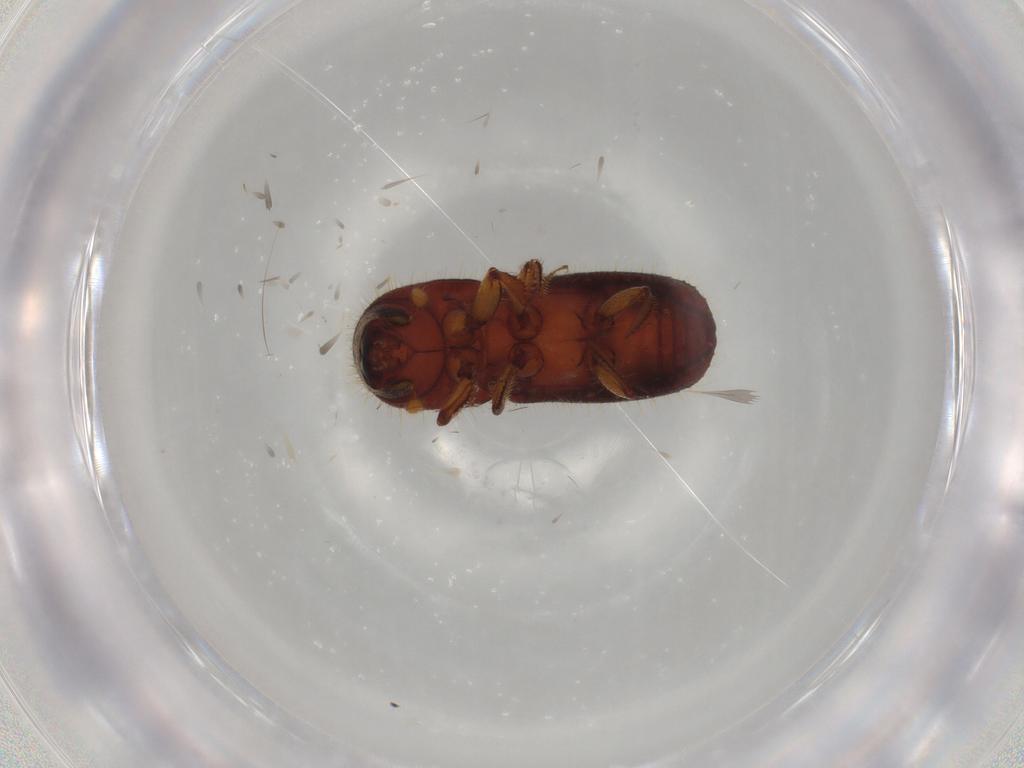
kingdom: Animalia
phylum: Arthropoda
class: Insecta
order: Coleoptera
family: Curculionidae
